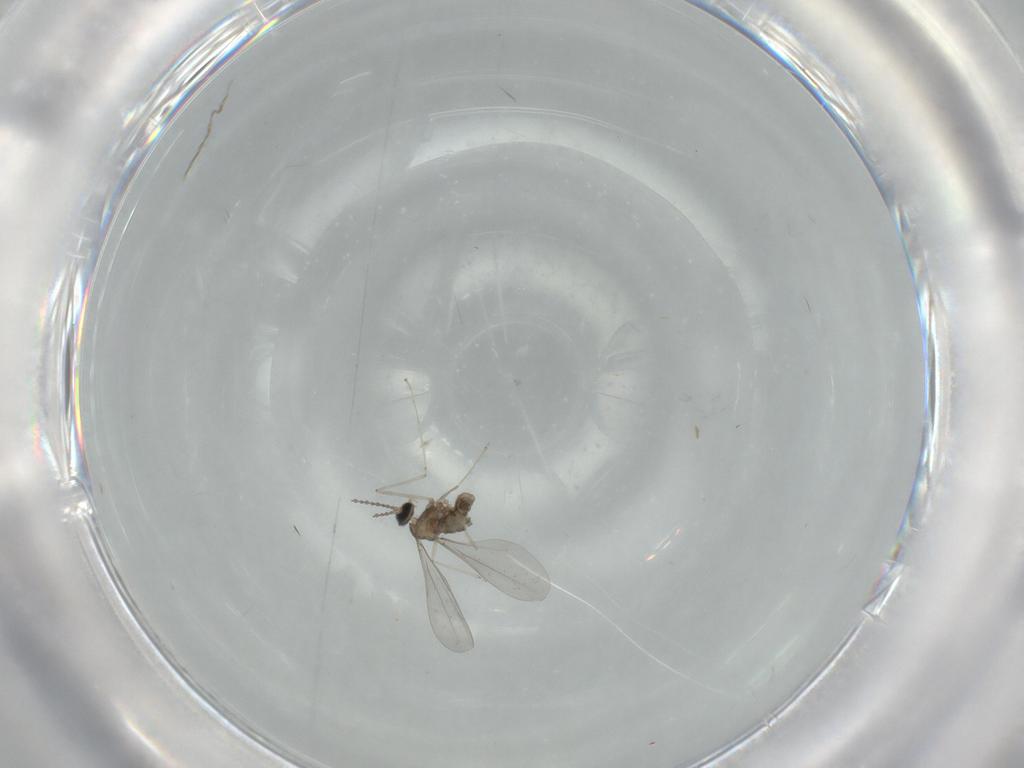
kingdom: Animalia
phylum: Arthropoda
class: Insecta
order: Diptera
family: Cecidomyiidae
